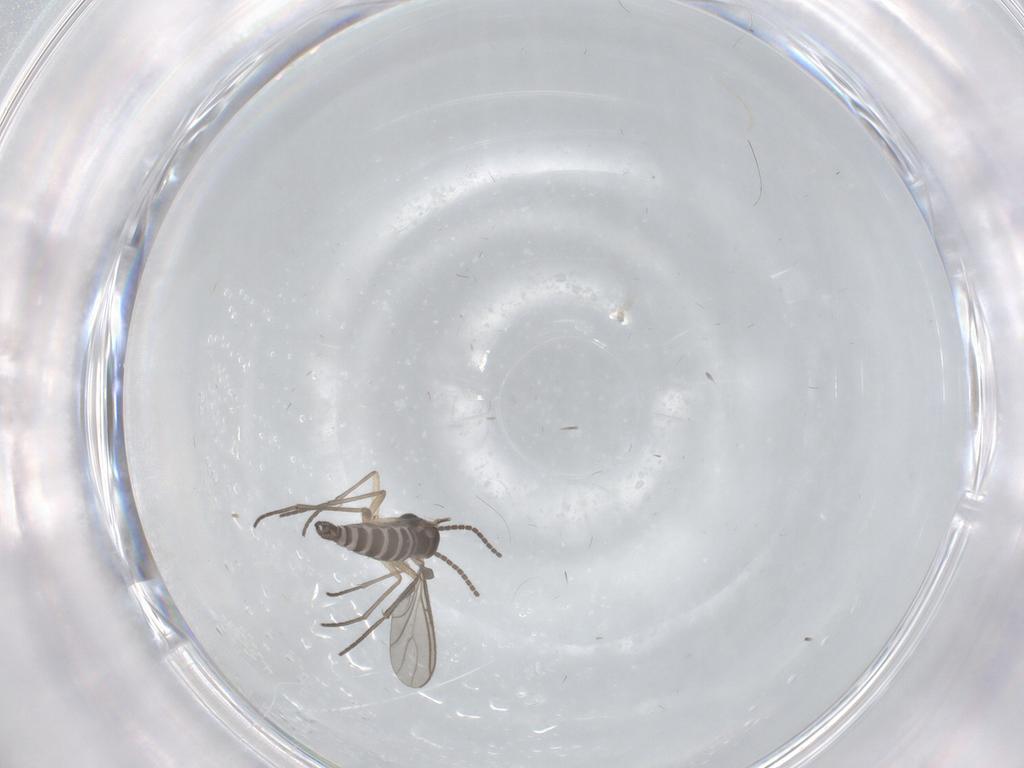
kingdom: Animalia
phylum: Arthropoda
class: Insecta
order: Diptera
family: Sciaridae
